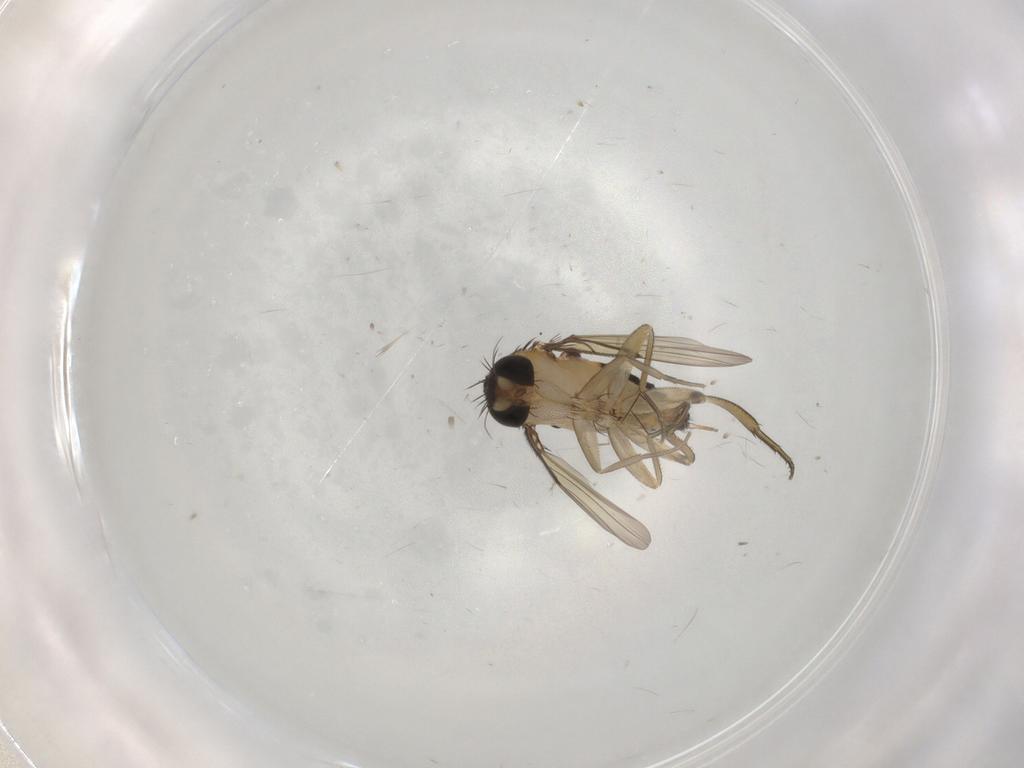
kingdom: Animalia
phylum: Arthropoda
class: Insecta
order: Diptera
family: Phoridae
